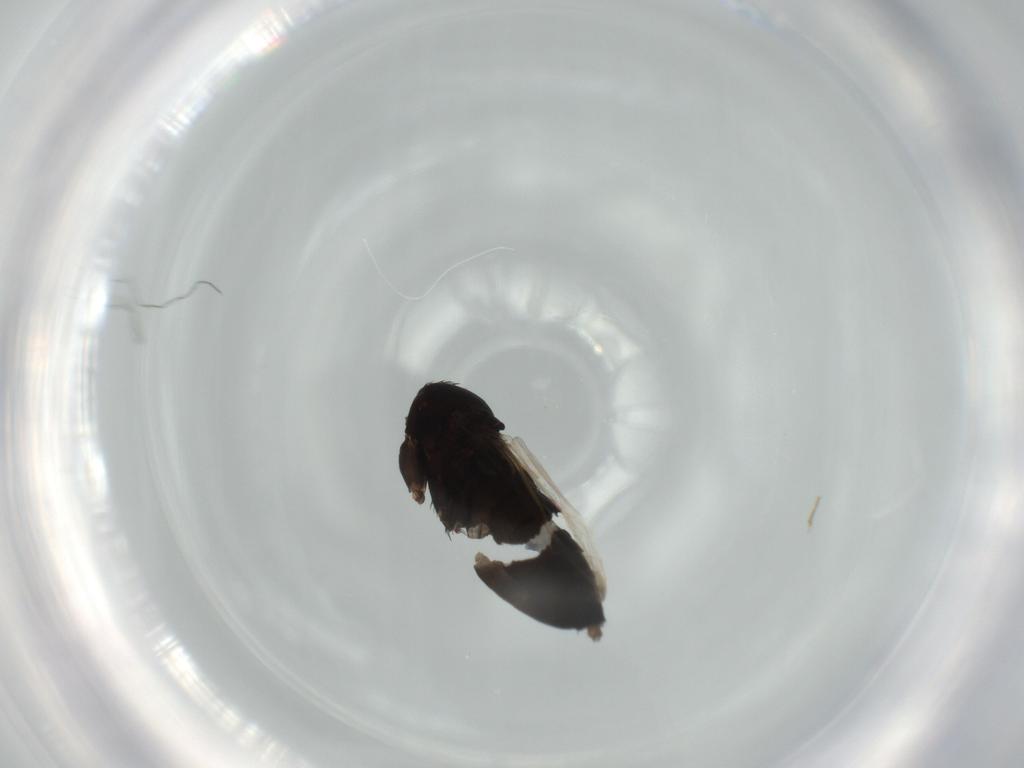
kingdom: Animalia
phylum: Arthropoda
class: Insecta
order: Diptera
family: Phoridae
